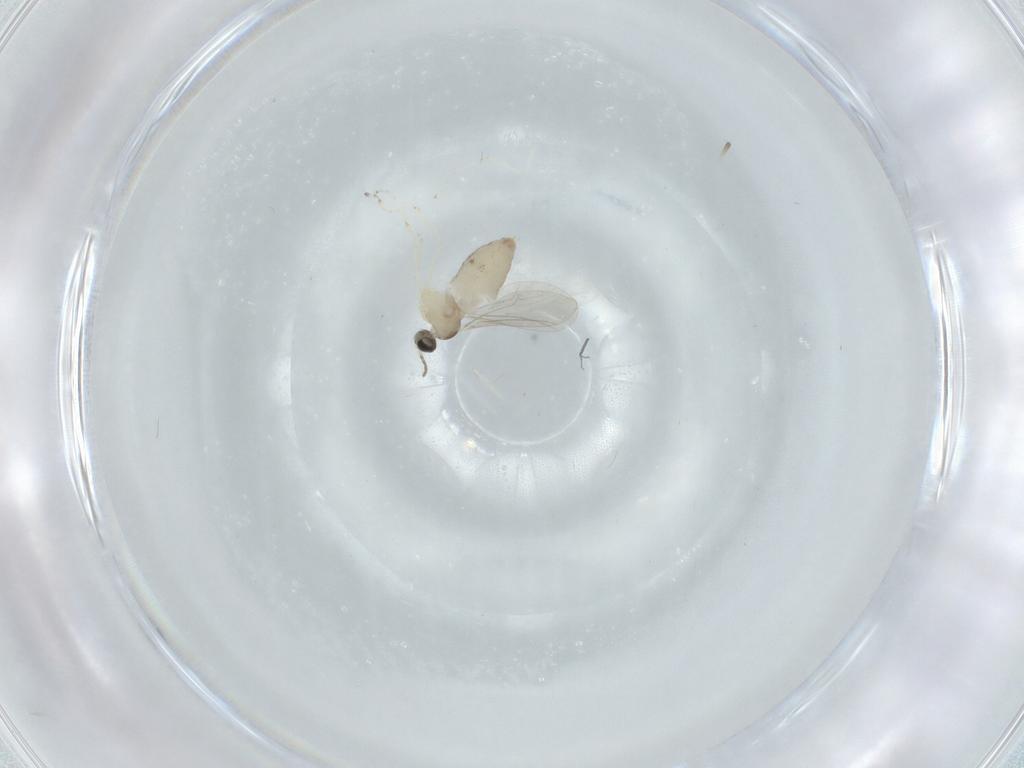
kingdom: Animalia
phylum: Arthropoda
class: Insecta
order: Diptera
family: Cecidomyiidae
